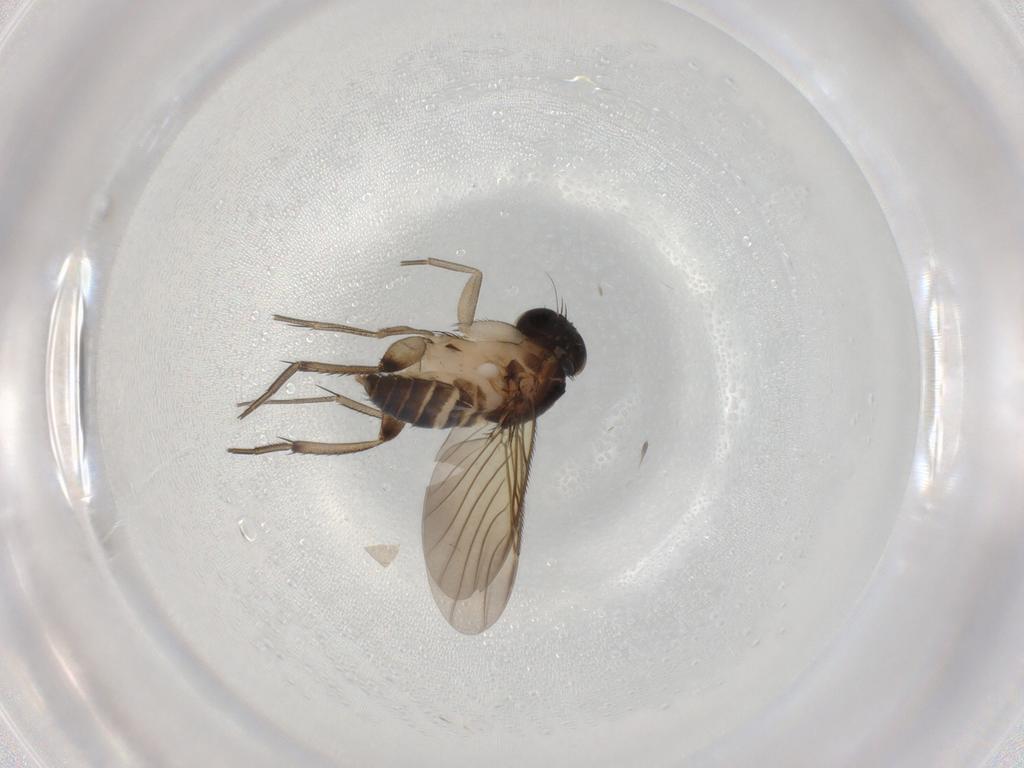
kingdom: Animalia
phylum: Arthropoda
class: Insecta
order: Diptera
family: Phoridae
